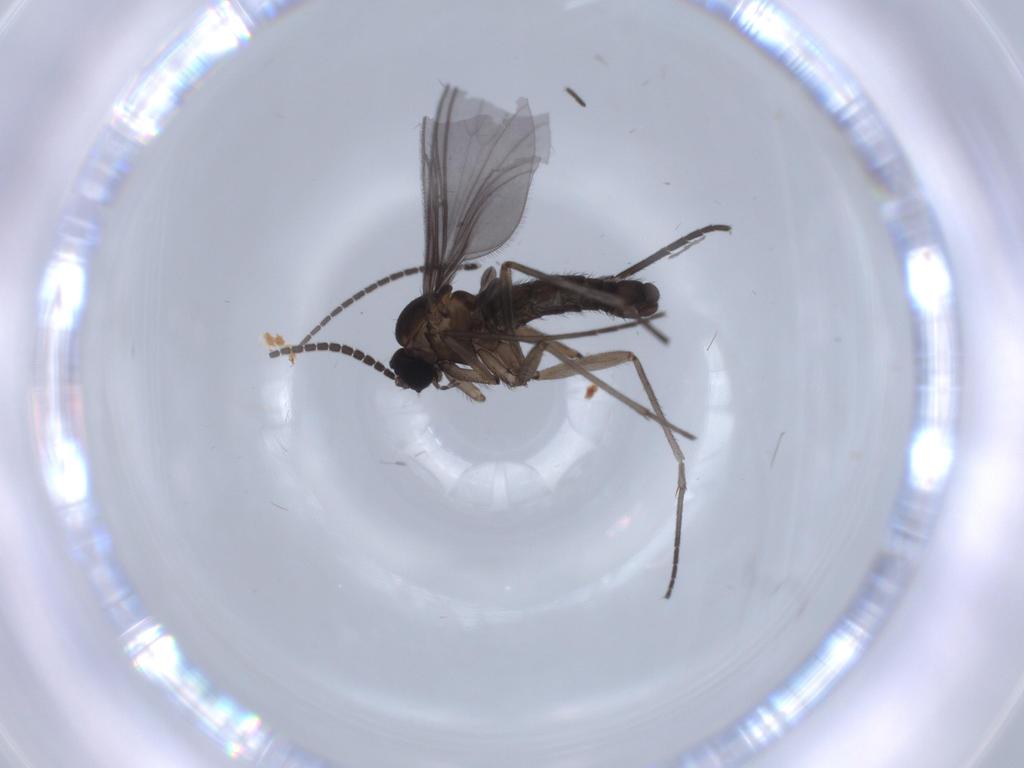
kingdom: Animalia
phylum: Arthropoda
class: Insecta
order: Diptera
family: Sciaridae
